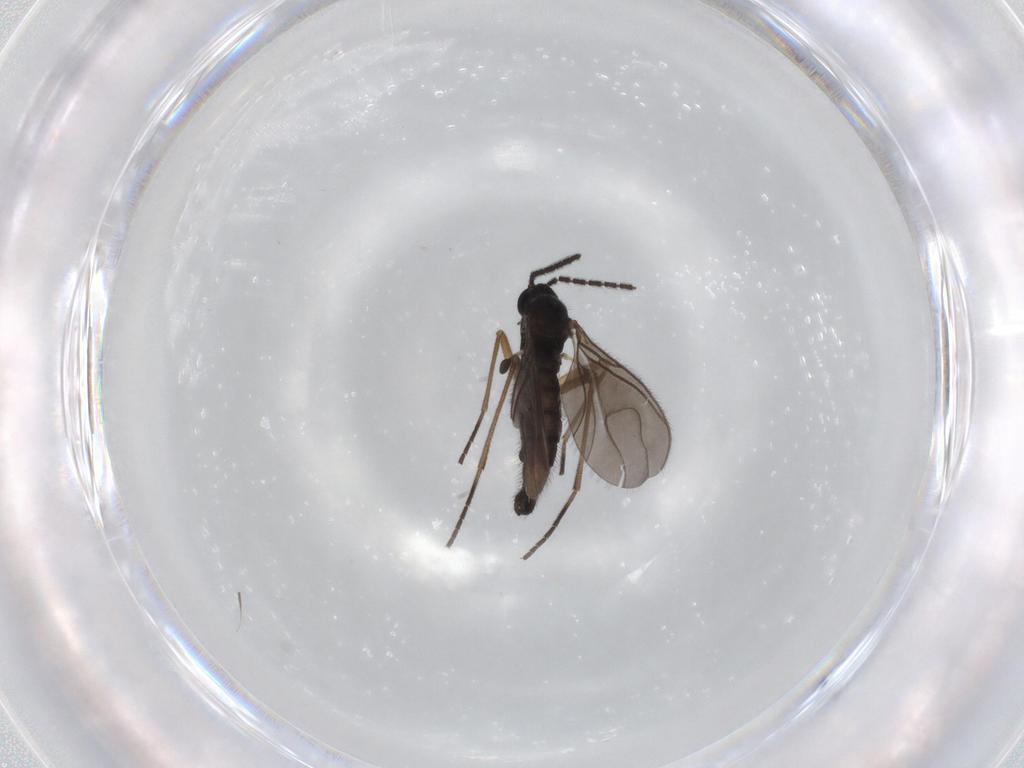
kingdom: Animalia
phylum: Arthropoda
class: Insecta
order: Diptera
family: Sciaridae
